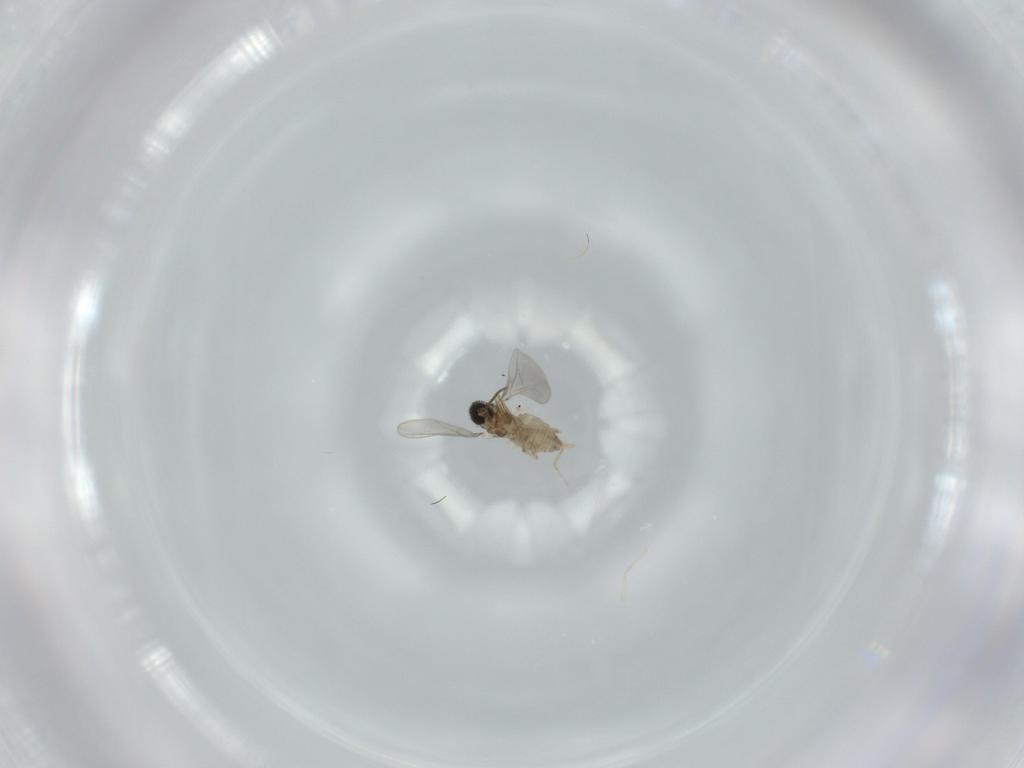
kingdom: Animalia
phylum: Arthropoda
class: Insecta
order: Diptera
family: Cecidomyiidae
